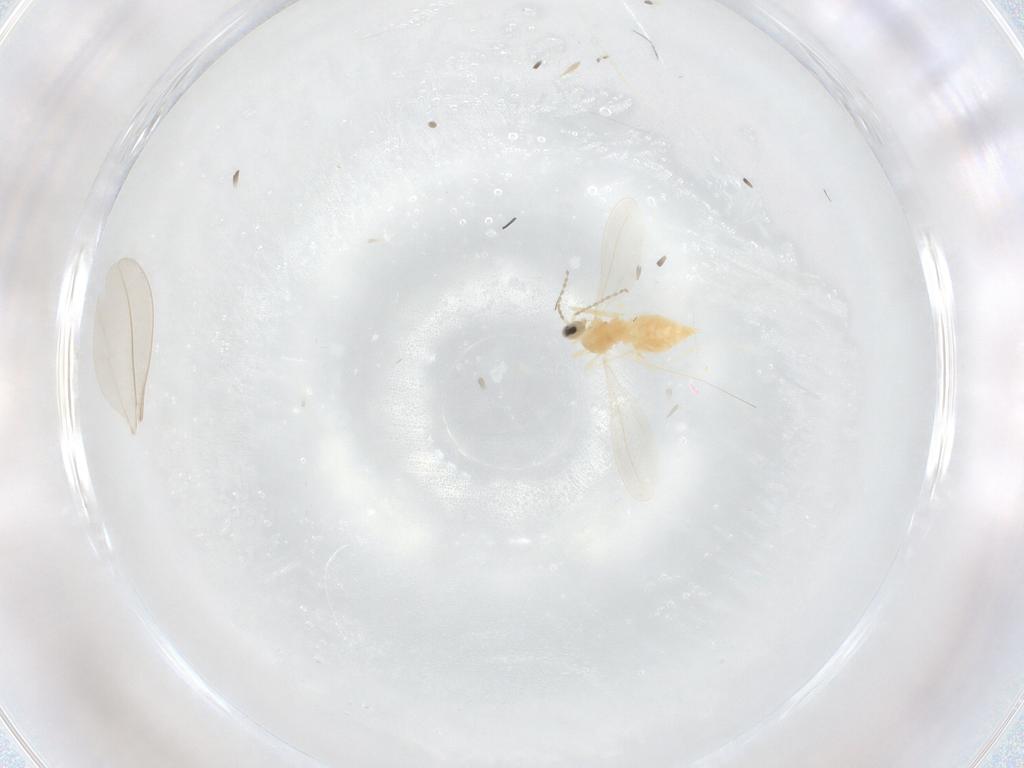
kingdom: Animalia
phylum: Arthropoda
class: Insecta
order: Diptera
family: Cecidomyiidae
